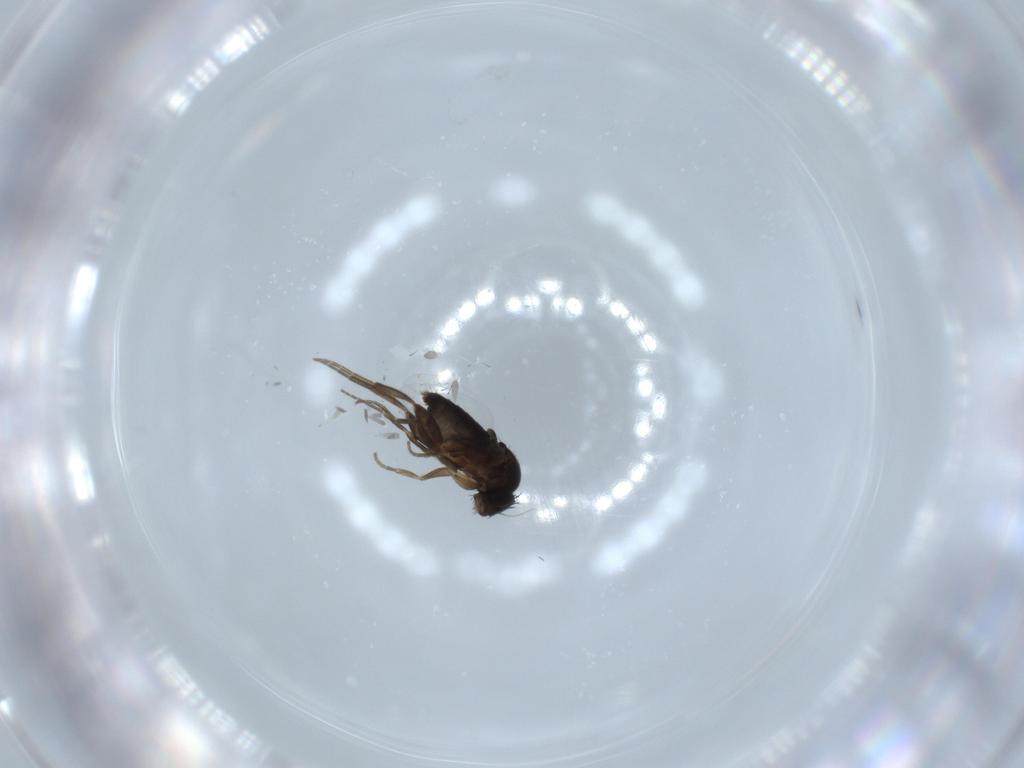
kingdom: Animalia
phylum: Arthropoda
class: Insecta
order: Diptera
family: Phoridae
